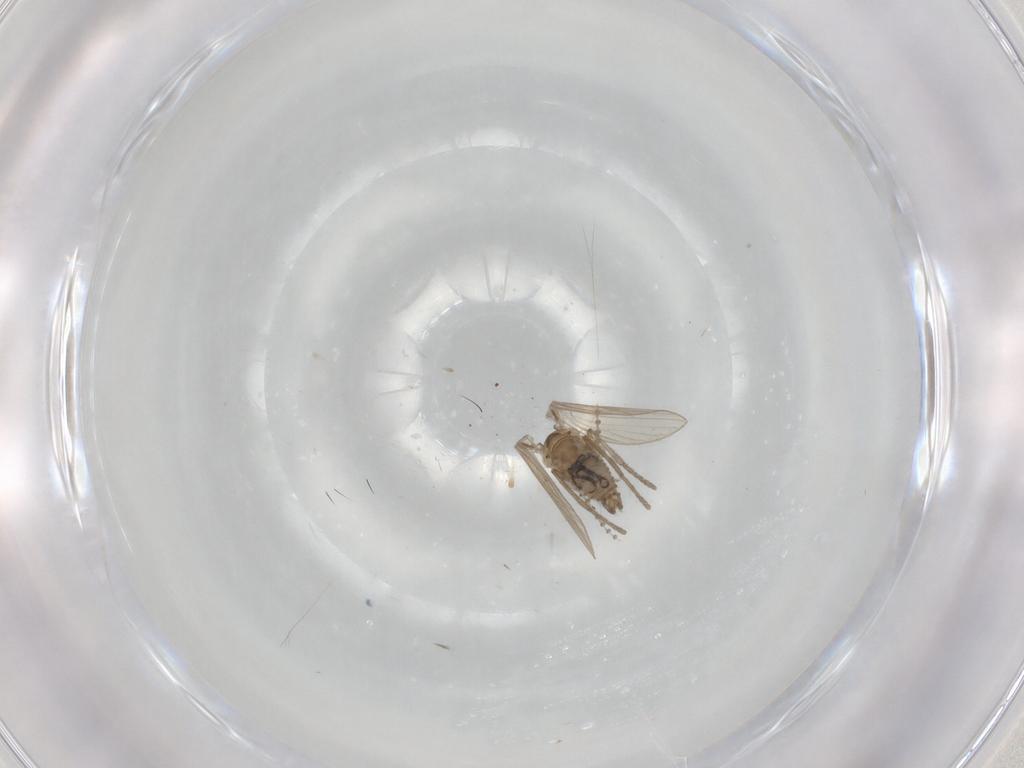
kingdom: Animalia
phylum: Arthropoda
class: Insecta
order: Diptera
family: Psychodidae
